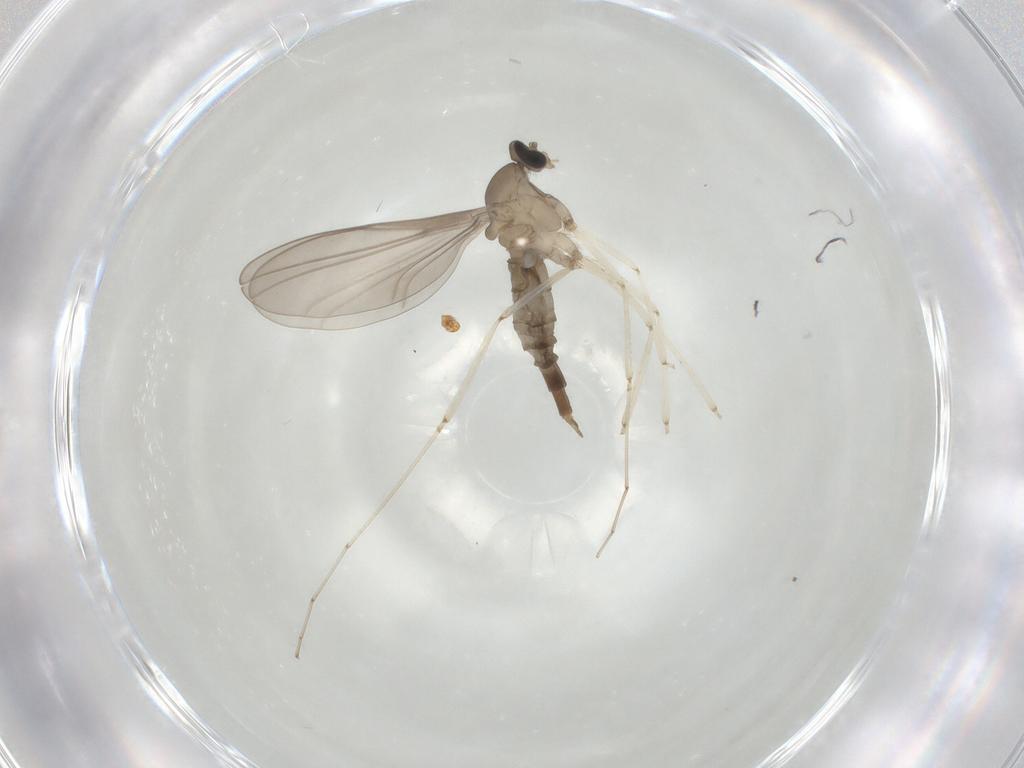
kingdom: Animalia
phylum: Arthropoda
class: Insecta
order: Diptera
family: Cecidomyiidae
